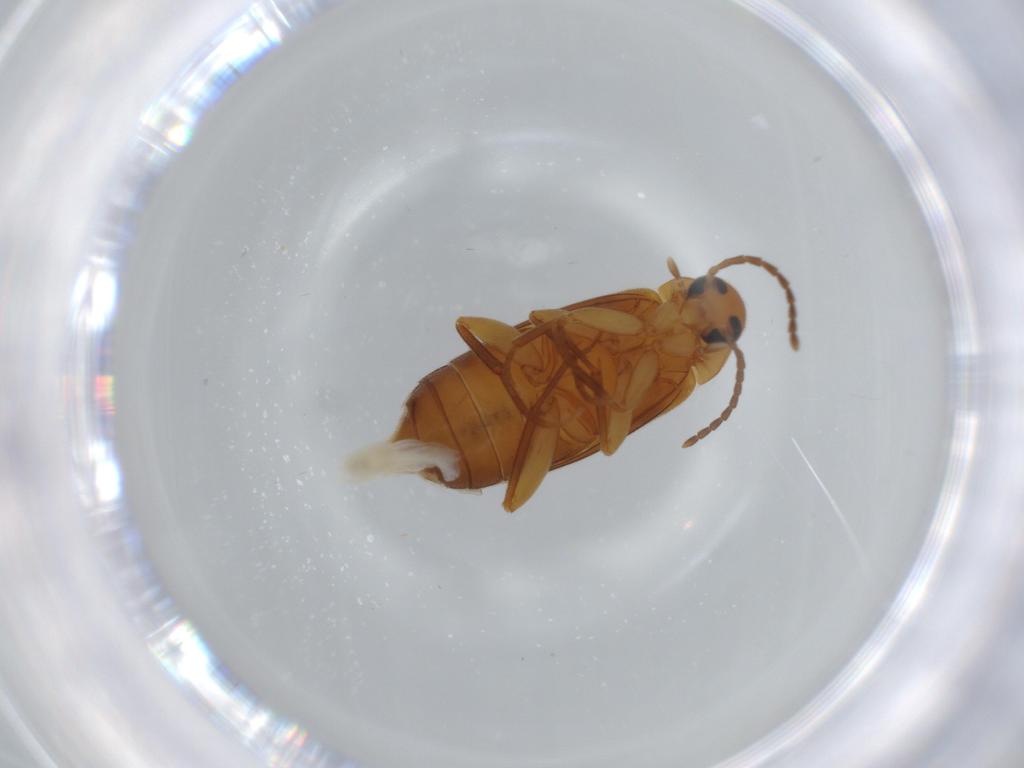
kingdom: Animalia
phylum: Arthropoda
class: Insecta
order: Coleoptera
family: Scraptiidae
